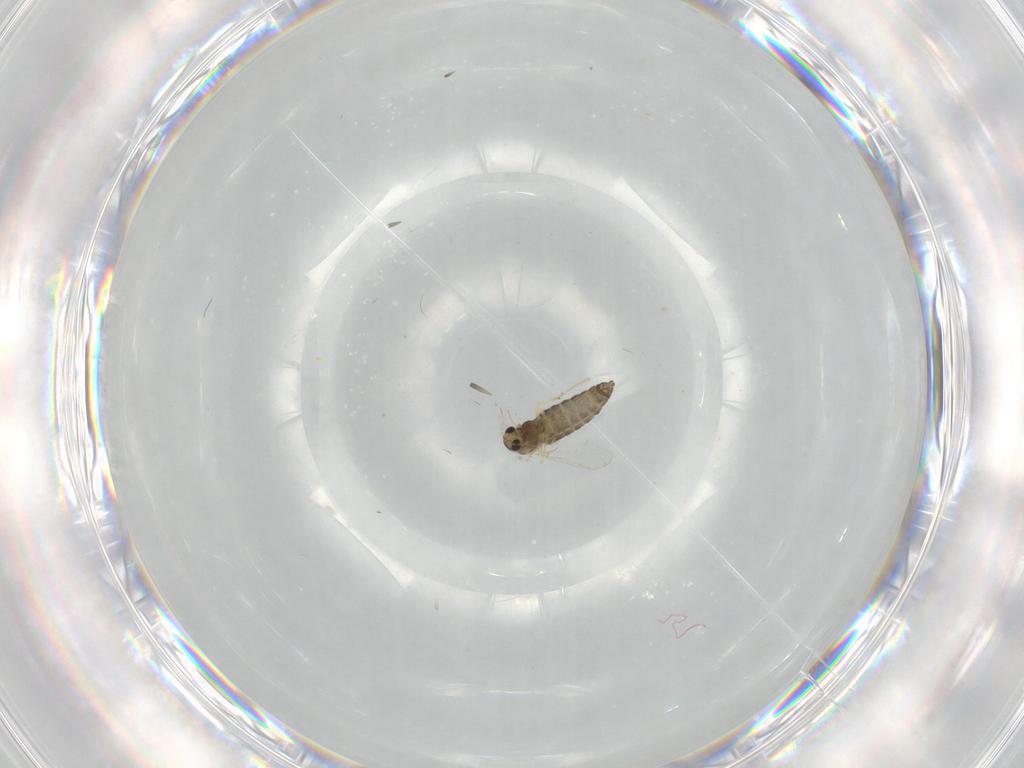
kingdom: Animalia
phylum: Arthropoda
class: Insecta
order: Diptera
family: Chironomidae
